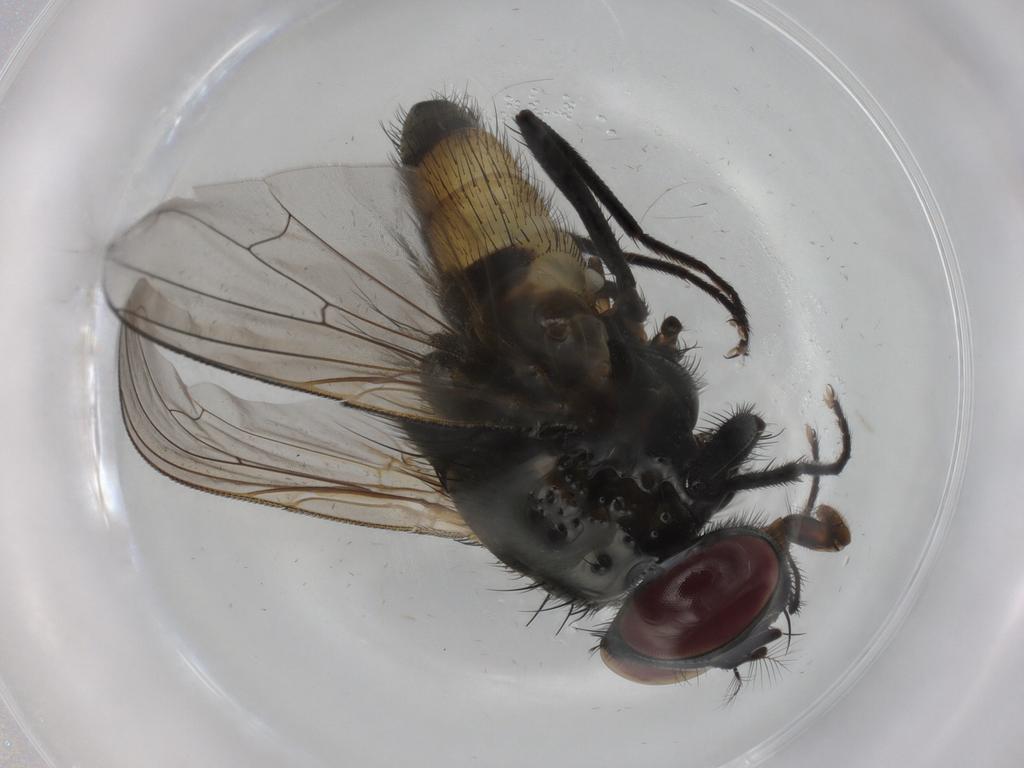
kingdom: Animalia
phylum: Arthropoda
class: Insecta
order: Diptera
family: Muscidae
